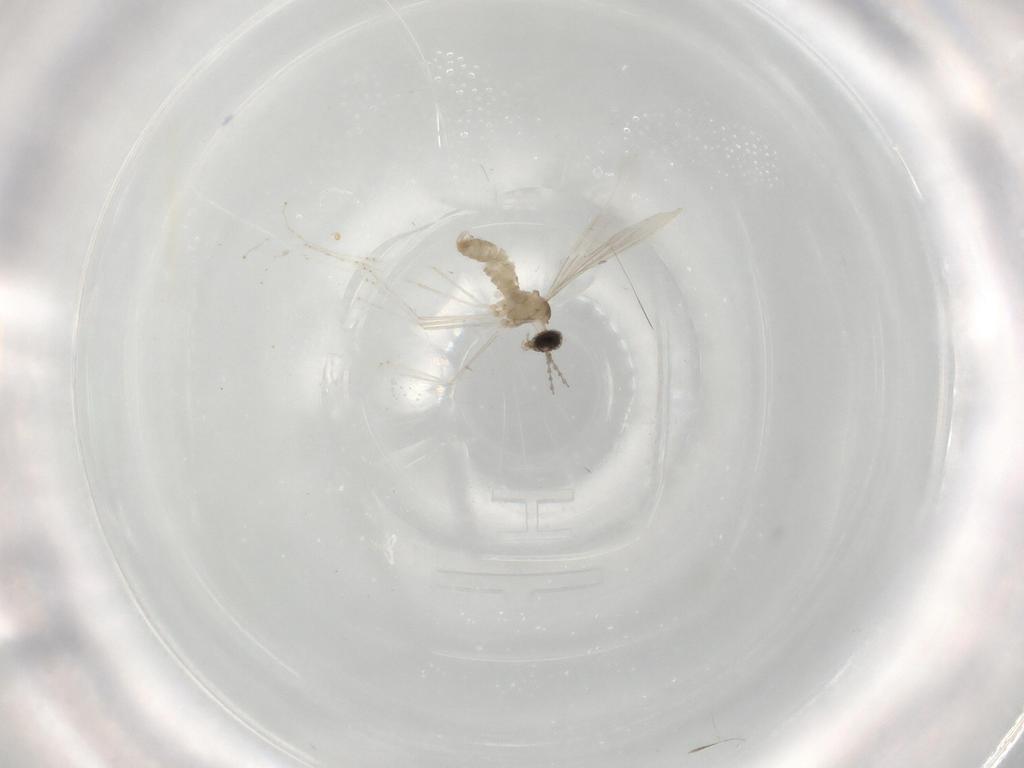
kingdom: Animalia
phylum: Arthropoda
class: Insecta
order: Diptera
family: Cecidomyiidae
